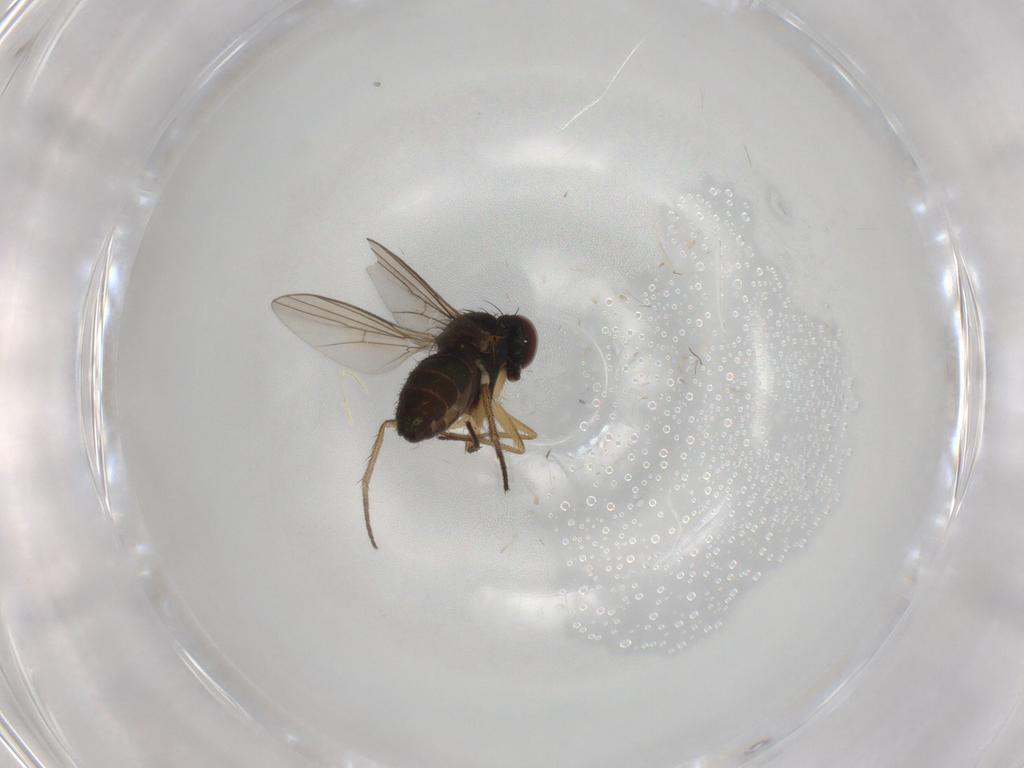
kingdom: Animalia
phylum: Arthropoda
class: Insecta
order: Diptera
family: Dolichopodidae
